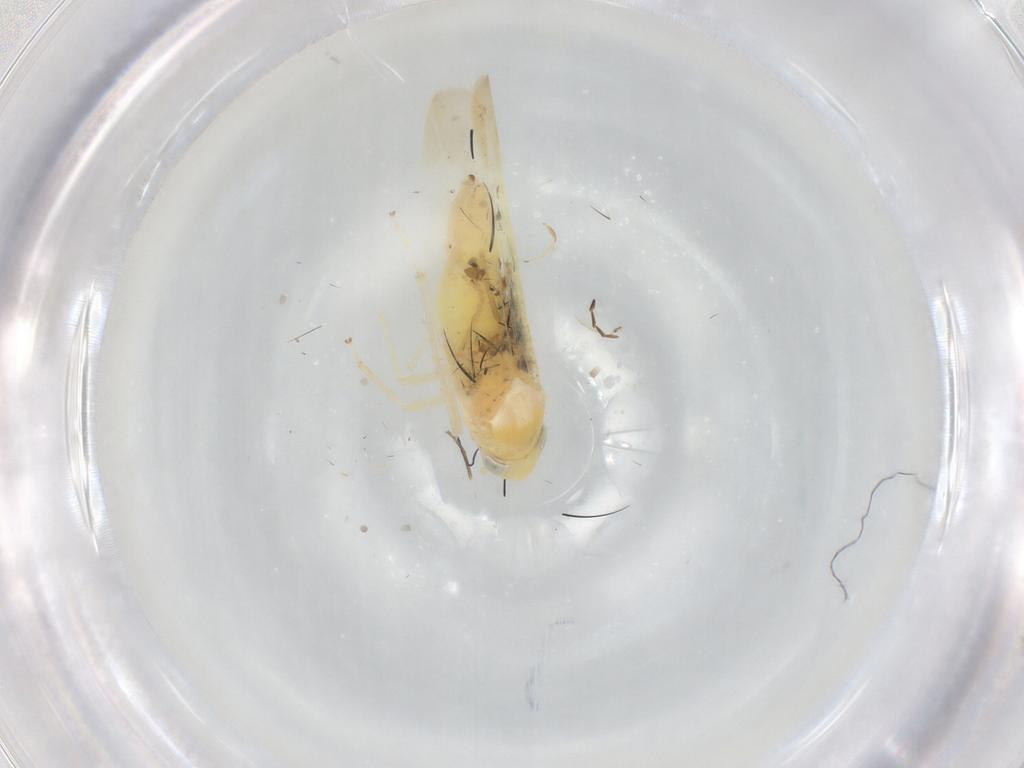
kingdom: Animalia
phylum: Arthropoda
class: Insecta
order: Hemiptera
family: Cicadellidae
